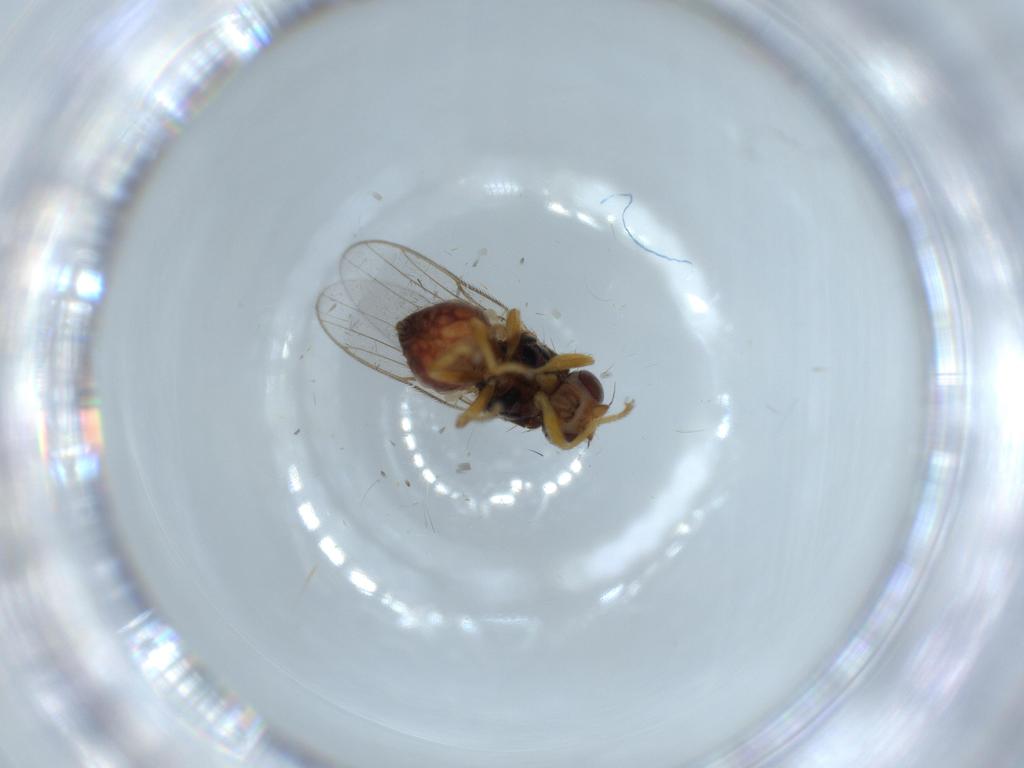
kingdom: Animalia
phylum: Arthropoda
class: Insecta
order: Diptera
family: Chloropidae
